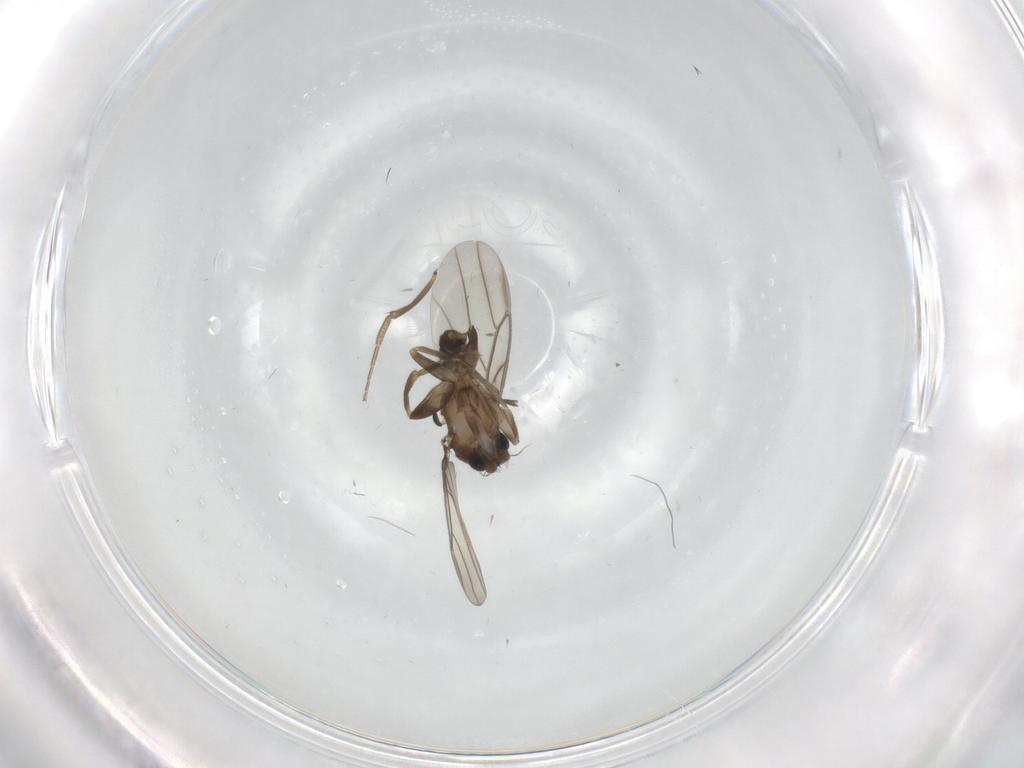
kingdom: Animalia
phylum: Arthropoda
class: Insecta
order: Diptera
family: Phoridae
